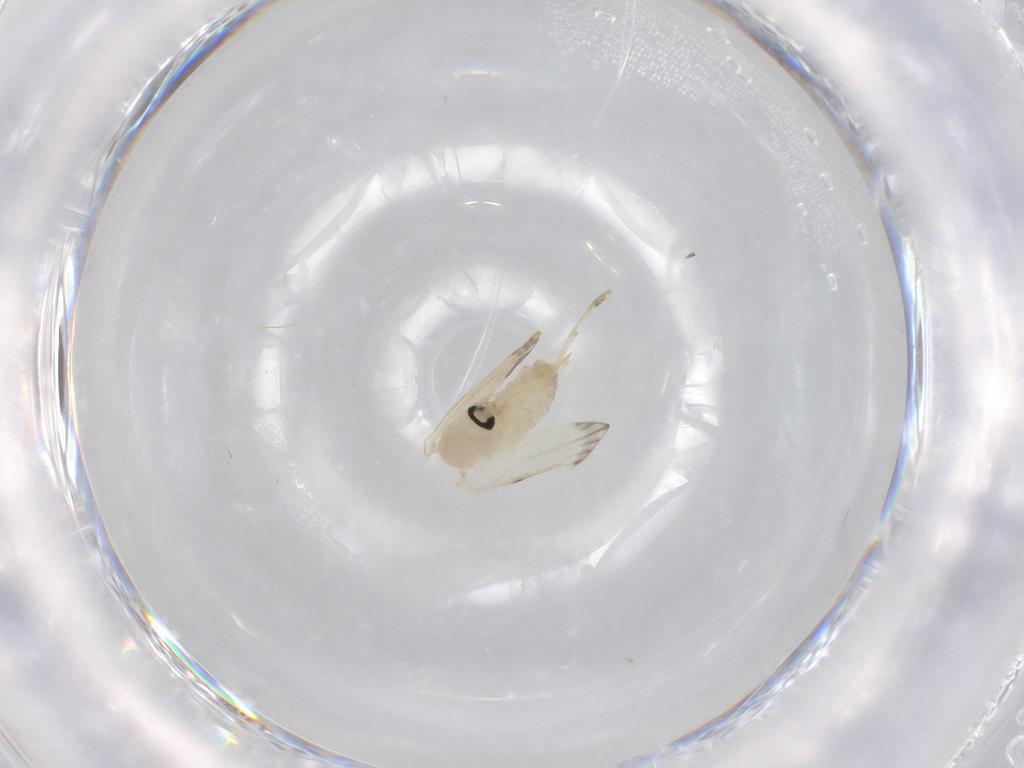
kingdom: Animalia
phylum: Arthropoda
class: Insecta
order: Diptera
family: Psychodidae
